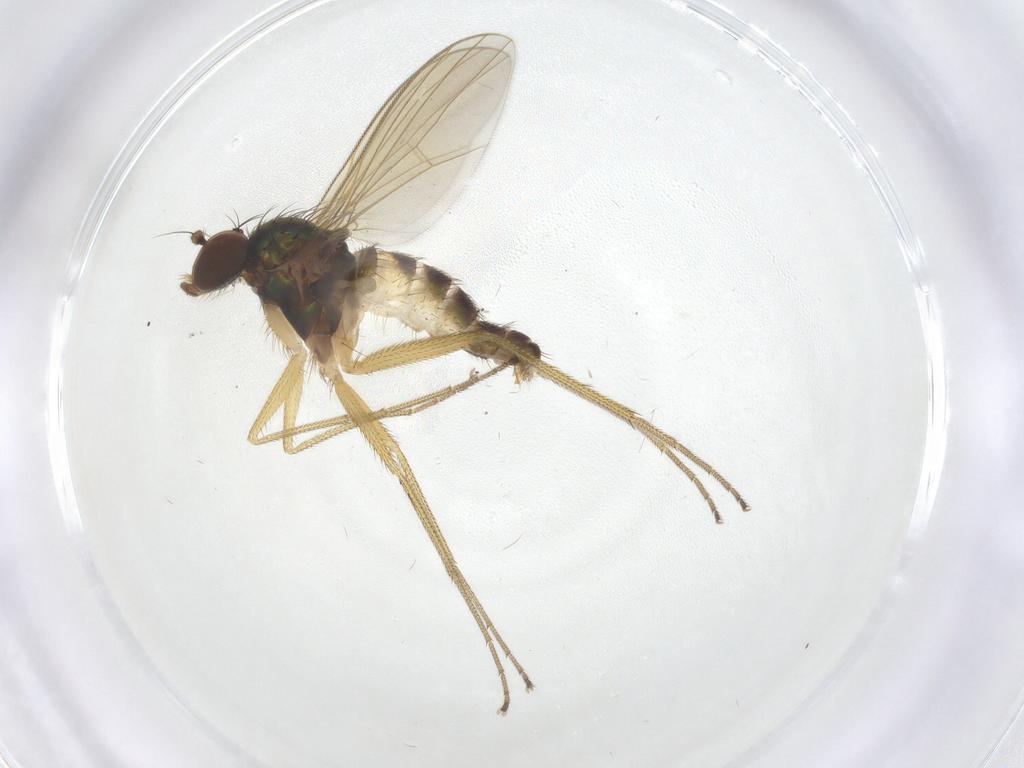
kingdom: Animalia
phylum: Arthropoda
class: Insecta
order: Diptera
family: Dolichopodidae
